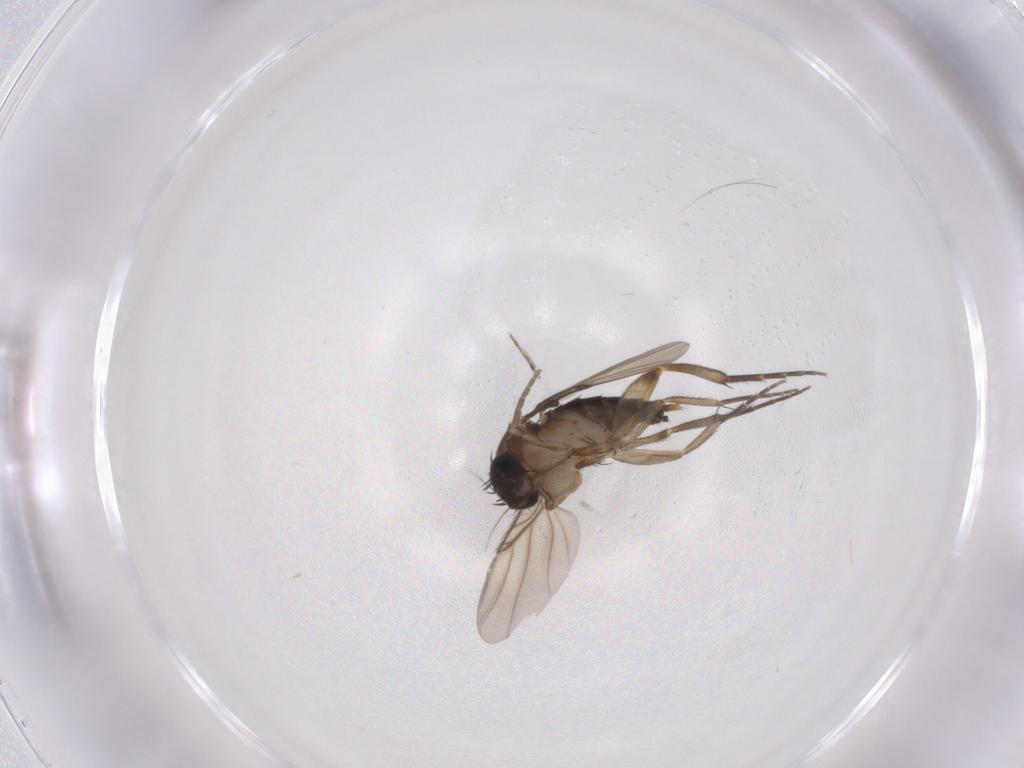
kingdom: Animalia
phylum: Arthropoda
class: Insecta
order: Diptera
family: Phoridae
